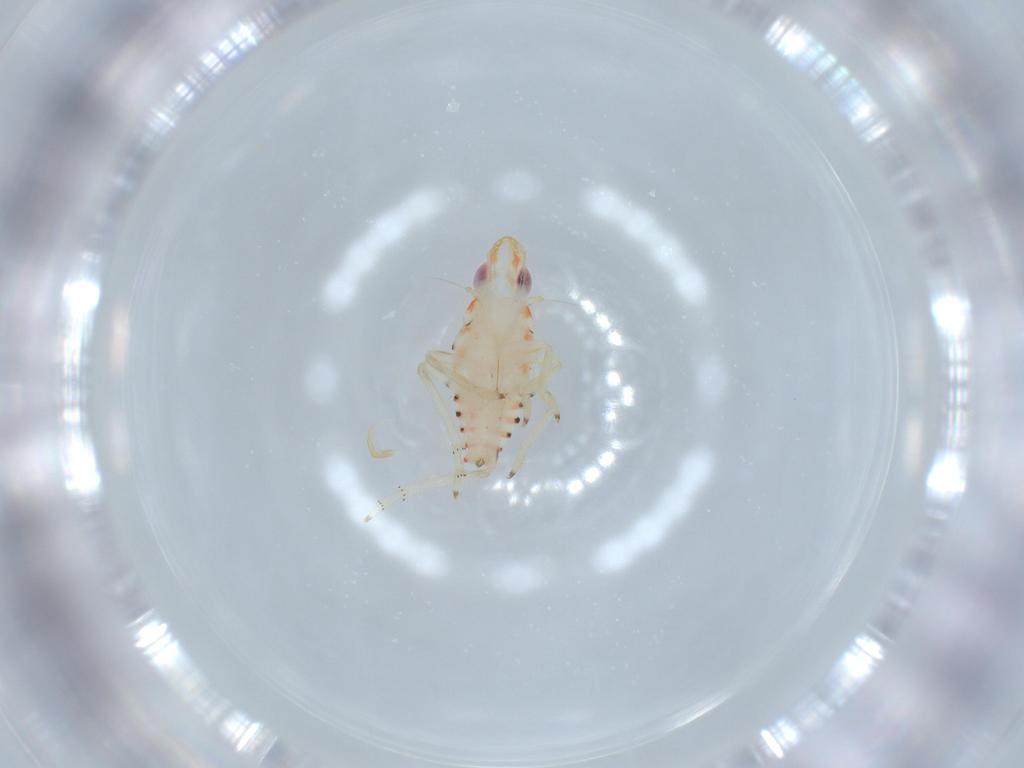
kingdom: Animalia
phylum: Arthropoda
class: Insecta
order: Hemiptera
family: Tropiduchidae
